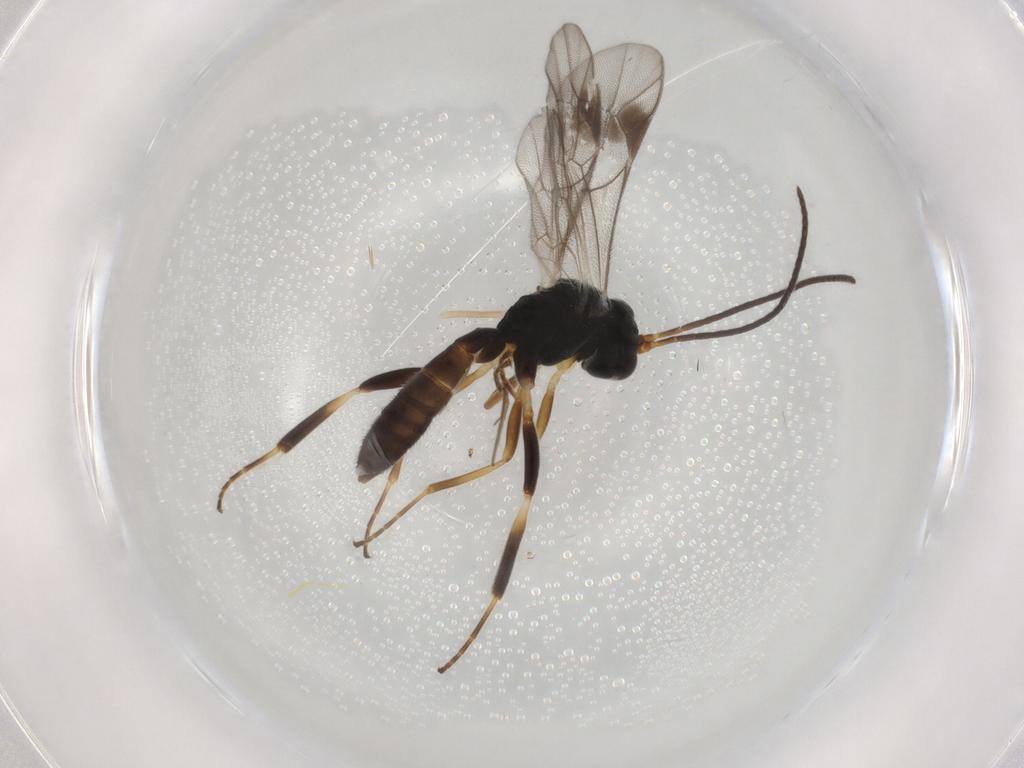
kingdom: Animalia
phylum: Arthropoda
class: Insecta
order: Hymenoptera
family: Ichneumonidae
